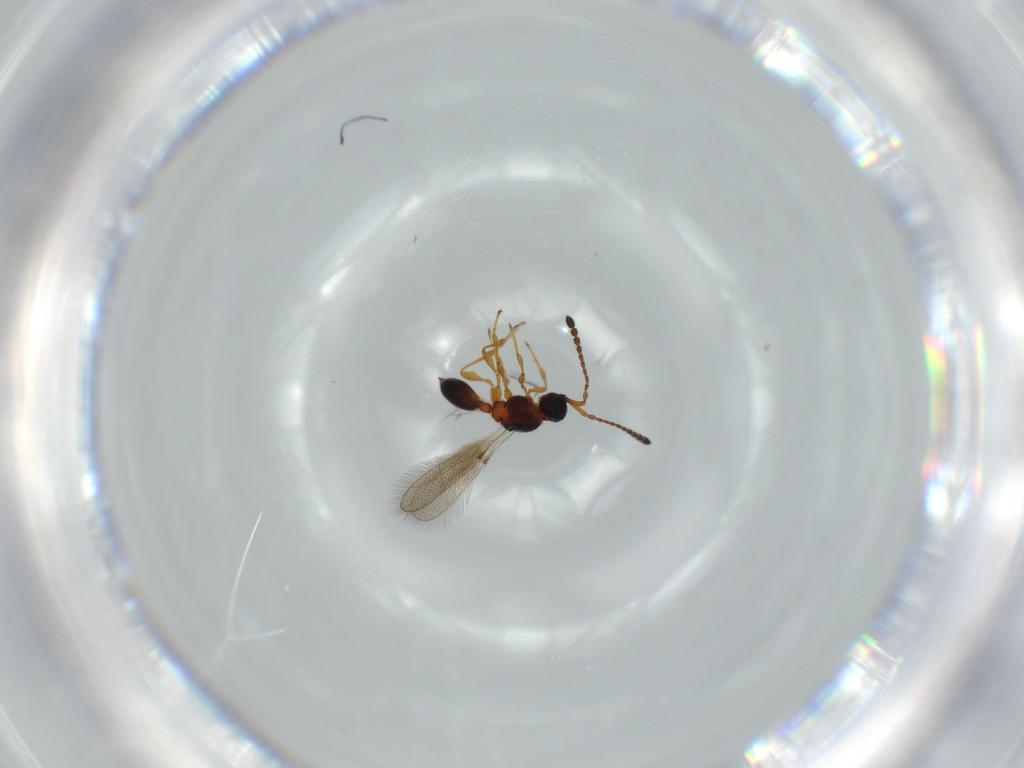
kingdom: Animalia
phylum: Arthropoda
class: Insecta
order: Hymenoptera
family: Diapriidae
